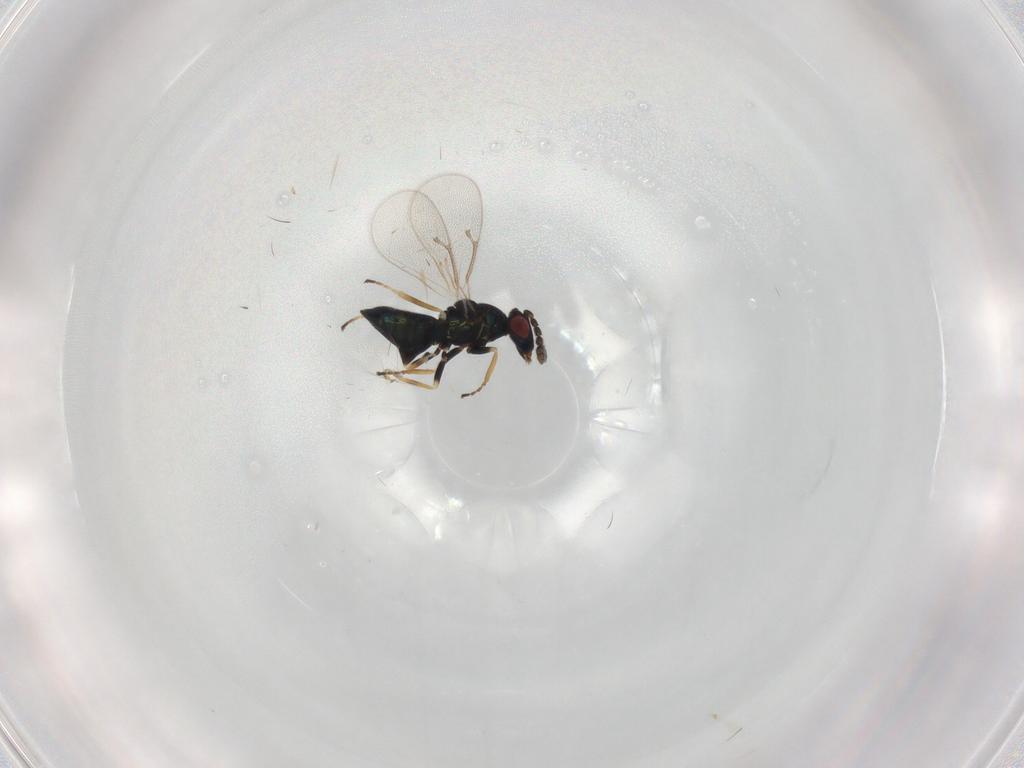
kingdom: Animalia
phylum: Arthropoda
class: Insecta
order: Hymenoptera
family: Eulophidae
